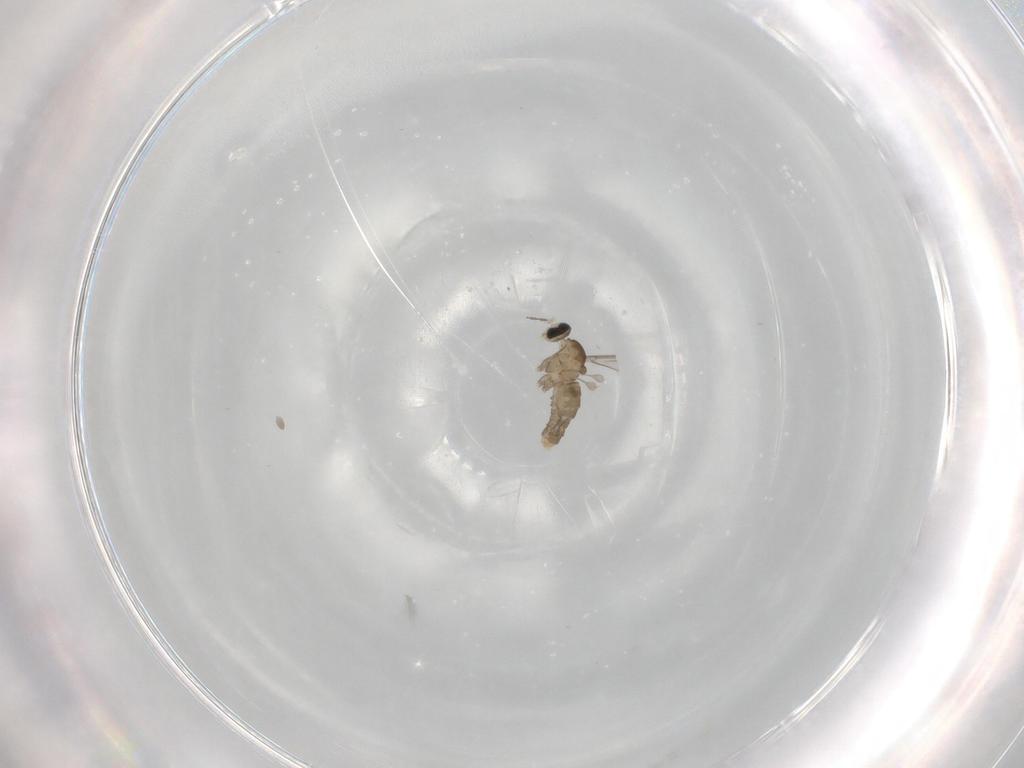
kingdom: Animalia
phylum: Arthropoda
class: Insecta
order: Diptera
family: Cecidomyiidae
